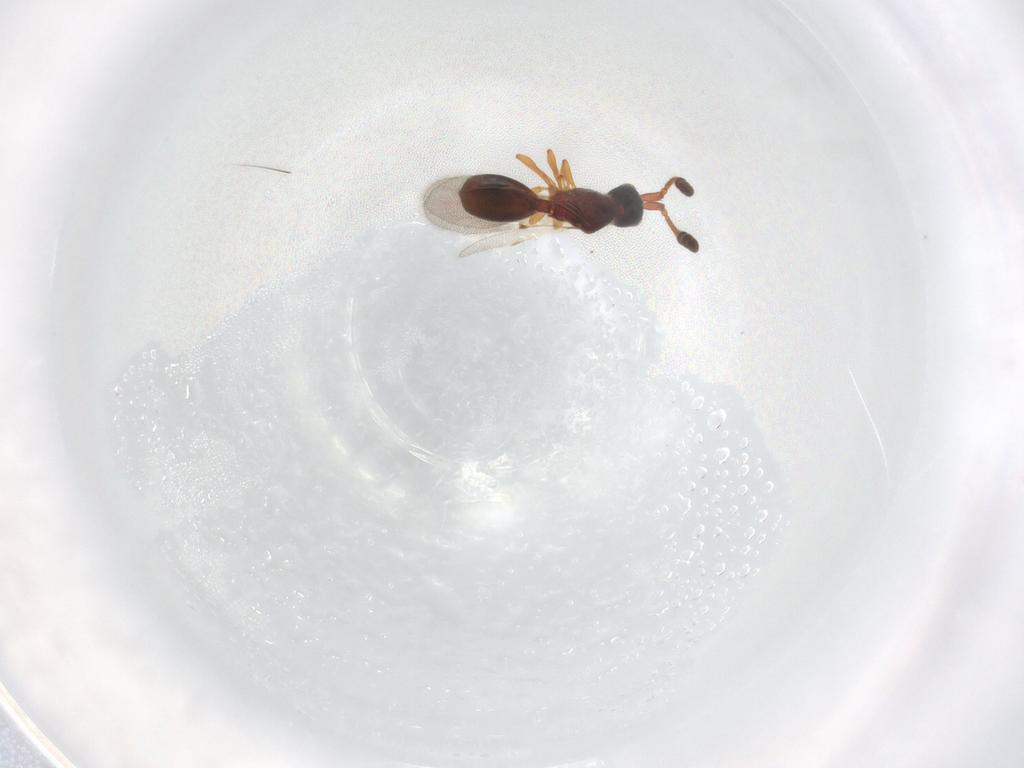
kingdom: Animalia
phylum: Arthropoda
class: Insecta
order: Hymenoptera
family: Diapriidae
